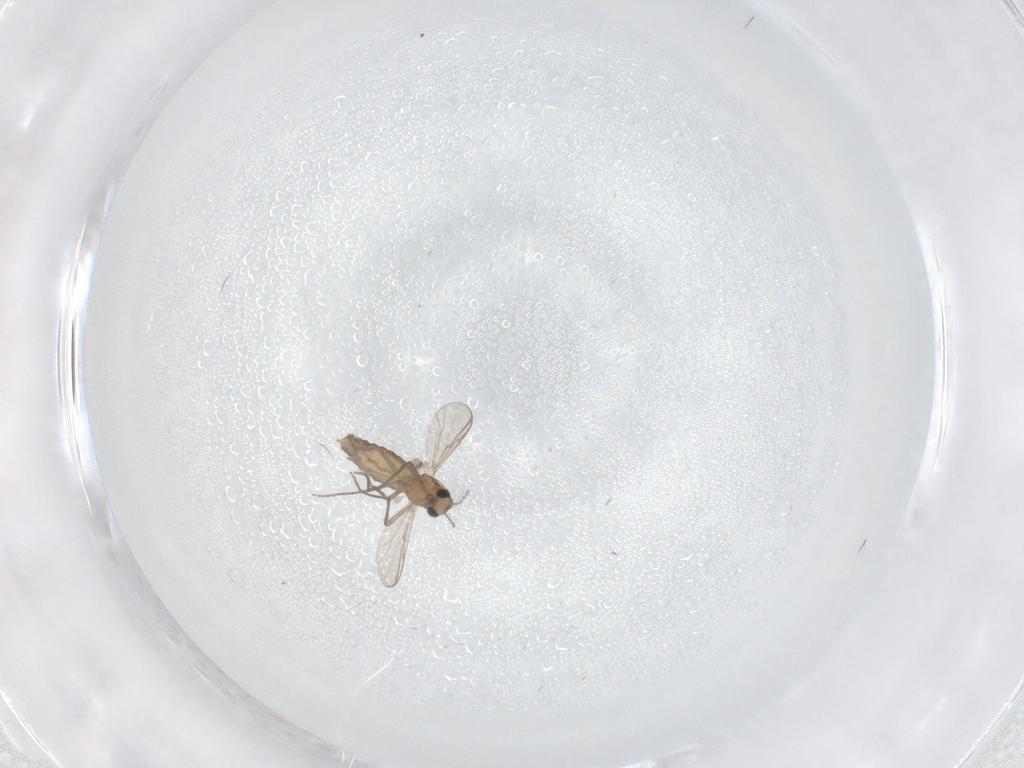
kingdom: Animalia
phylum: Arthropoda
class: Insecta
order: Diptera
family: Chironomidae
